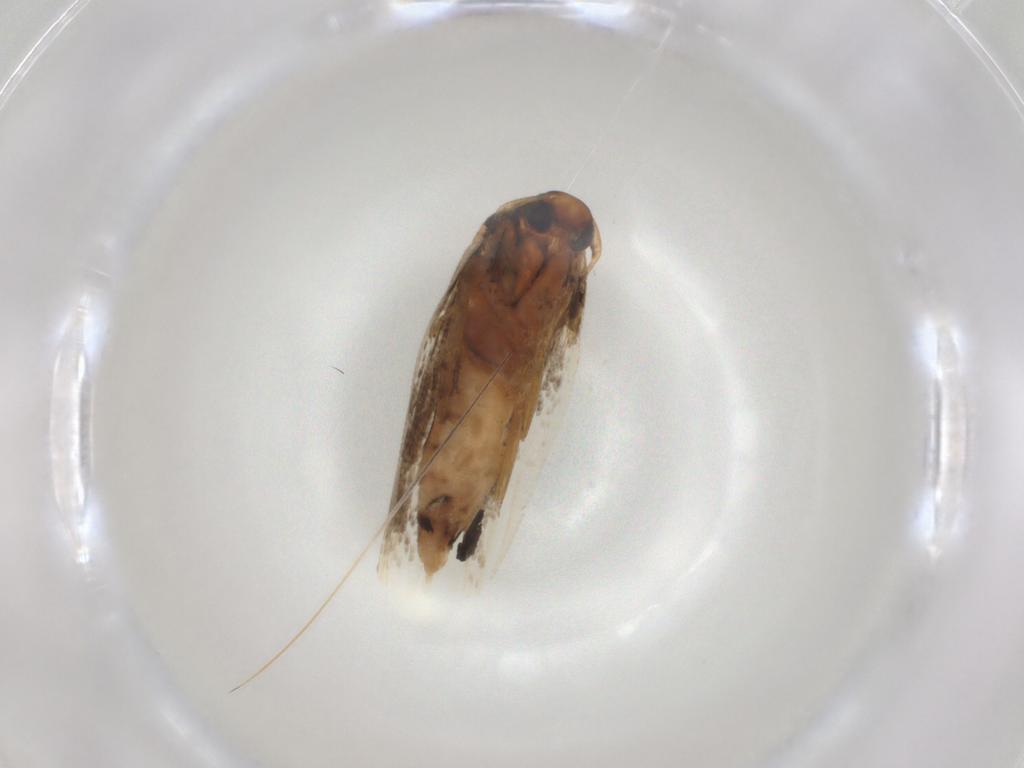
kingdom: Animalia
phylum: Arthropoda
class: Insecta
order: Lepidoptera
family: Cosmopterigidae
